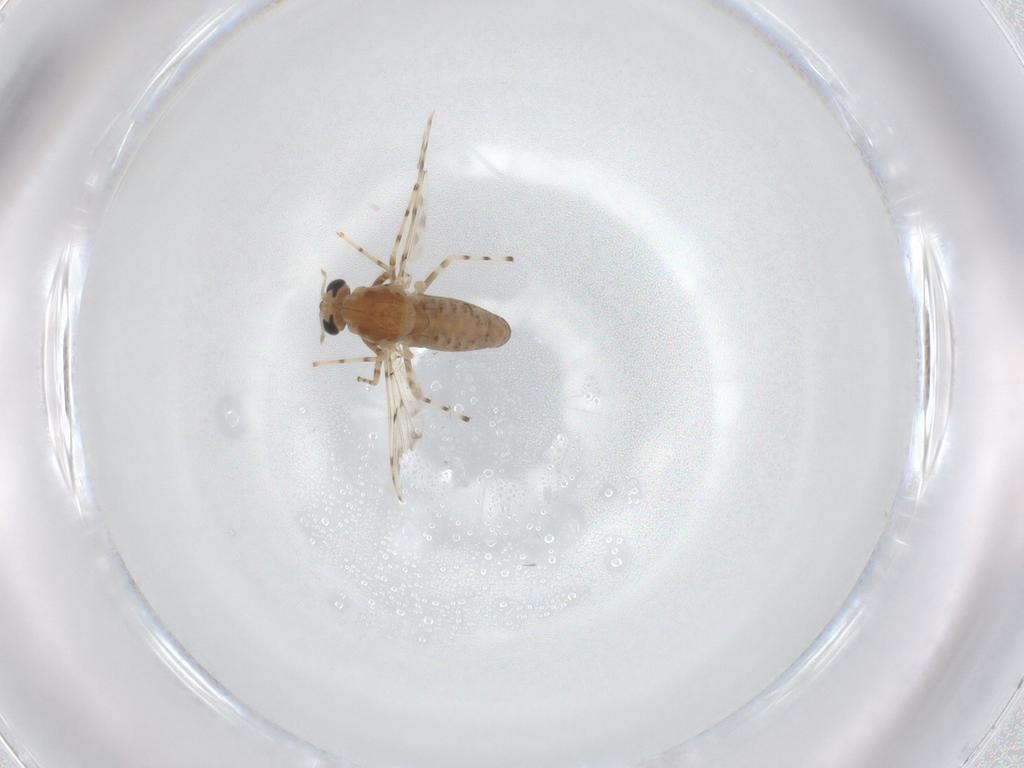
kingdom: Animalia
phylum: Arthropoda
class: Insecta
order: Diptera
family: Chironomidae
